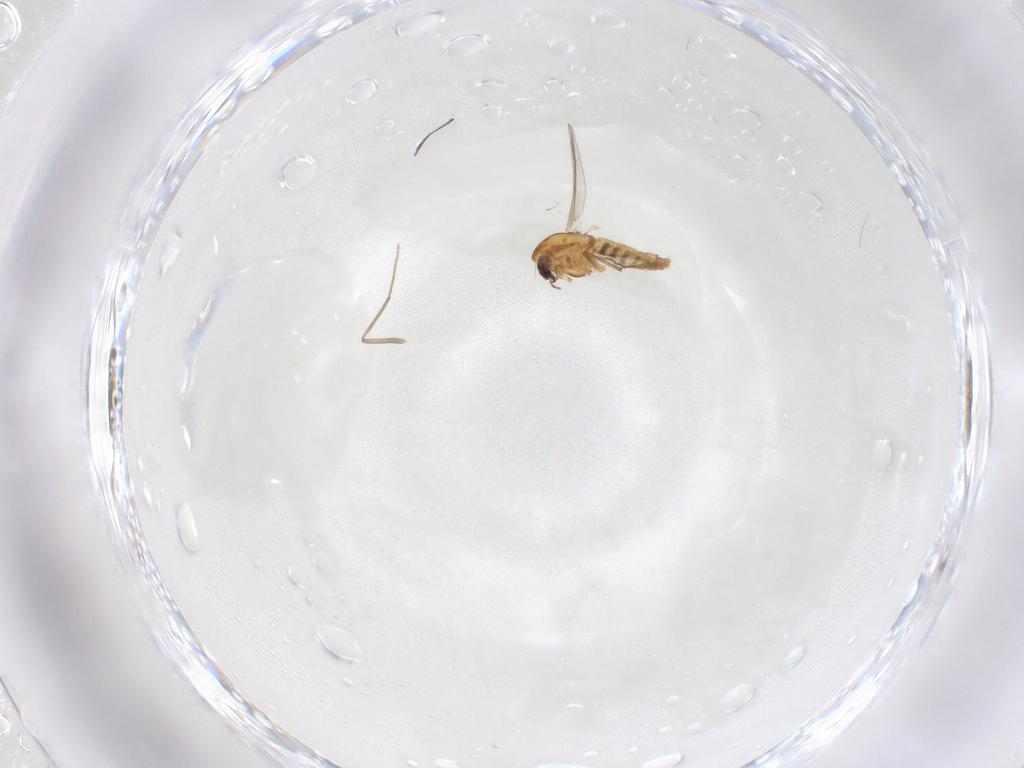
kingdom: Animalia
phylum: Arthropoda
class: Insecta
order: Diptera
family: Chironomidae
